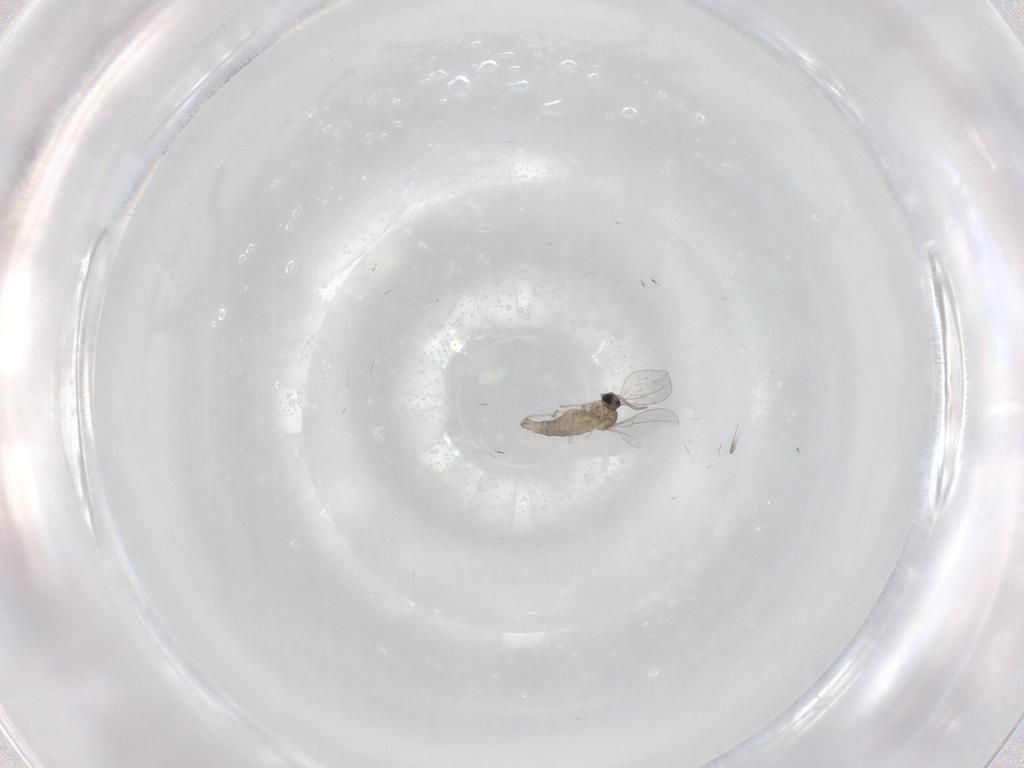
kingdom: Animalia
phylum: Arthropoda
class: Insecta
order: Diptera
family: Cecidomyiidae
